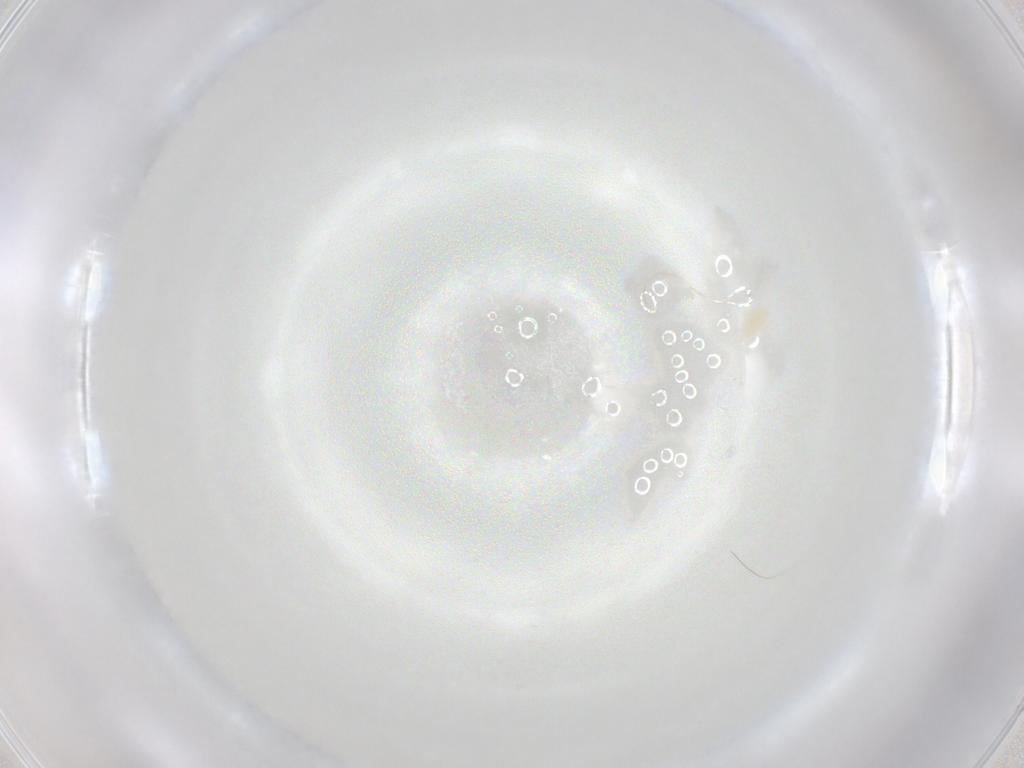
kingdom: Animalia
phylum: Arthropoda
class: Arachnida
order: Trombidiformes
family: Eupodidae
